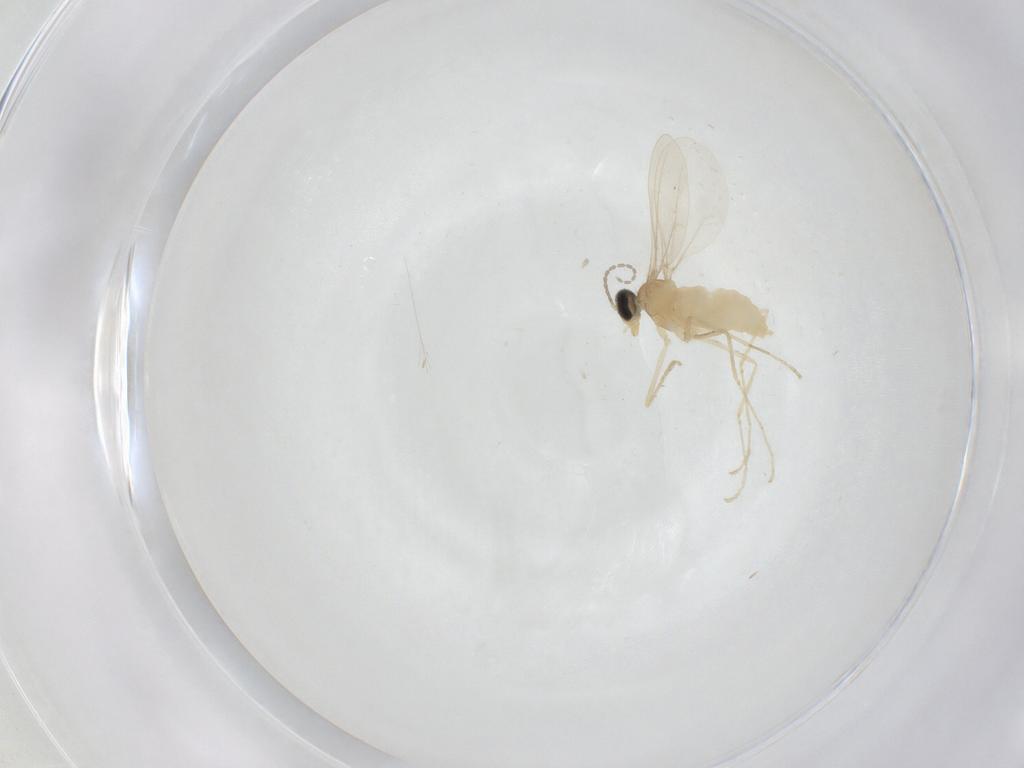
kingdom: Animalia
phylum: Arthropoda
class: Insecta
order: Diptera
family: Cecidomyiidae
